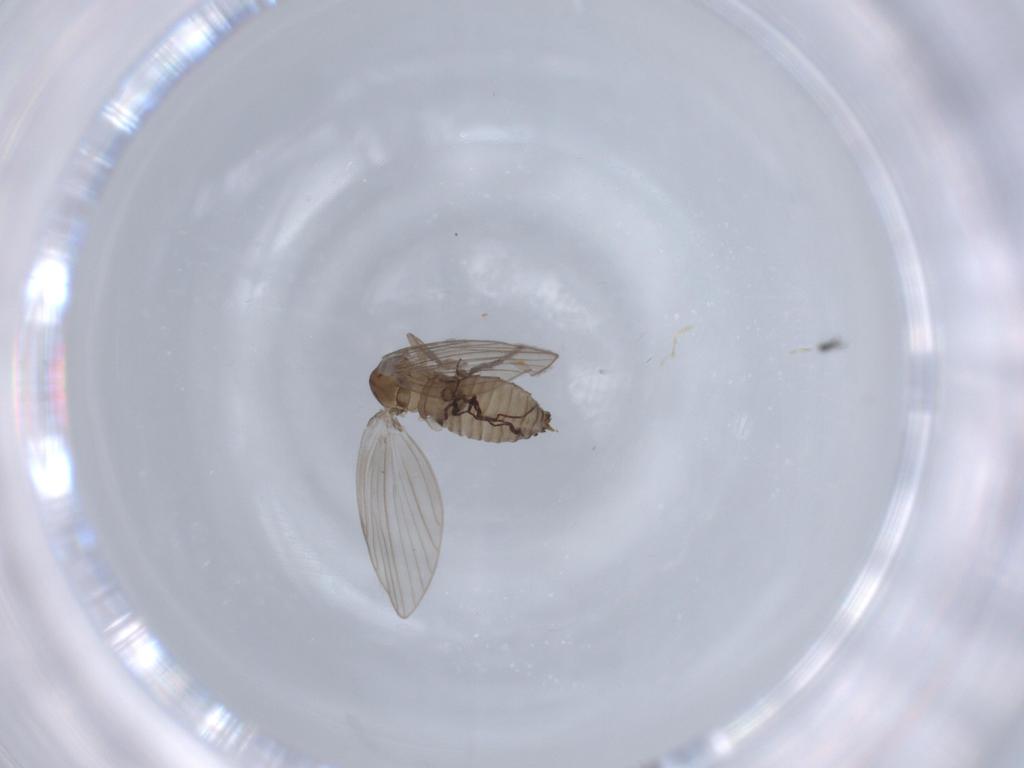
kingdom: Animalia
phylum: Arthropoda
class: Insecta
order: Diptera
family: Psychodidae
